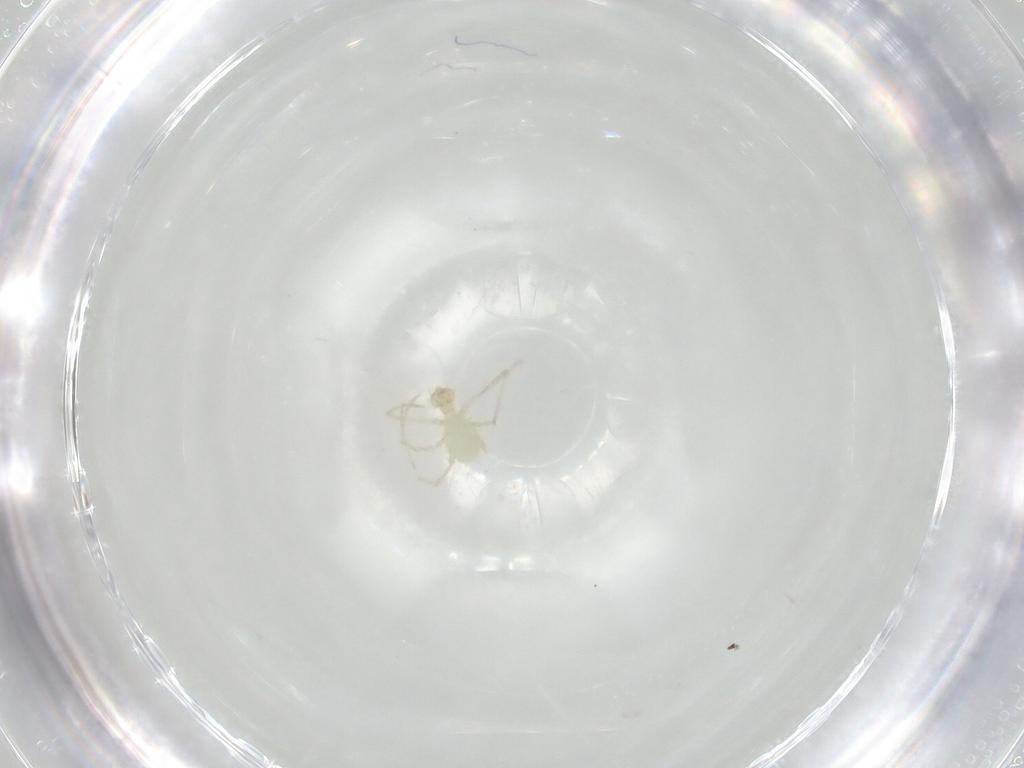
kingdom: Animalia
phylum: Arthropoda
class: Arachnida
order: Trombidiformes
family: Erythraeidae
